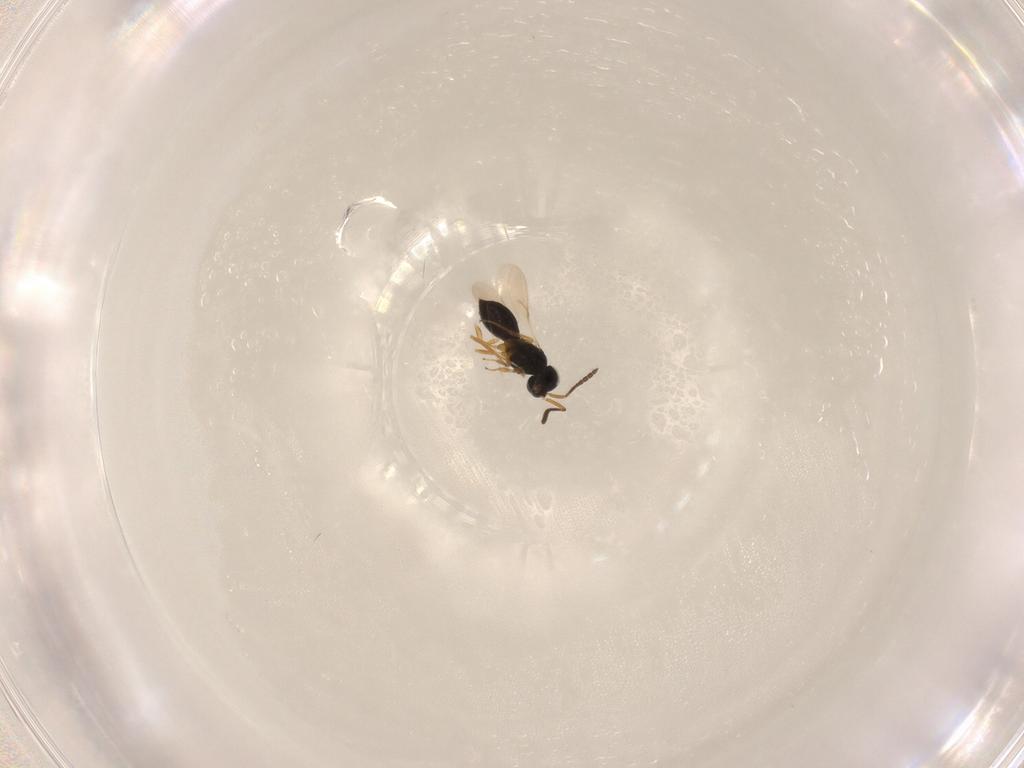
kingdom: Animalia
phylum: Arthropoda
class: Insecta
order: Hymenoptera
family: Scelionidae
